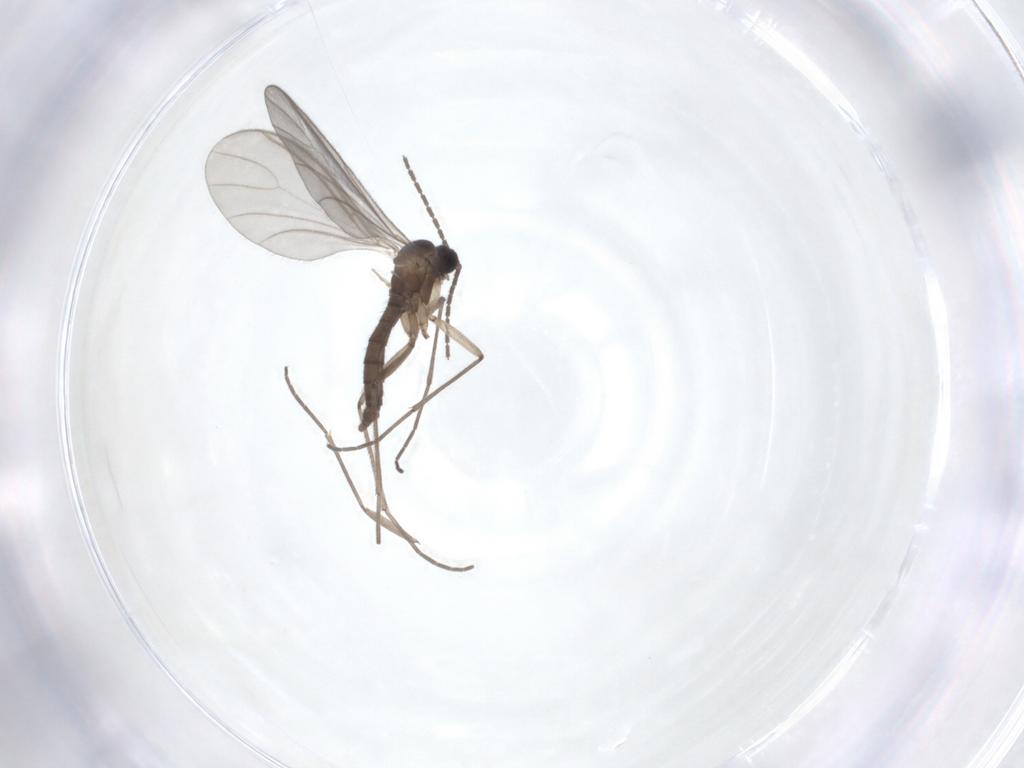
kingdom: Animalia
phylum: Arthropoda
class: Insecta
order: Diptera
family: Sciaridae
